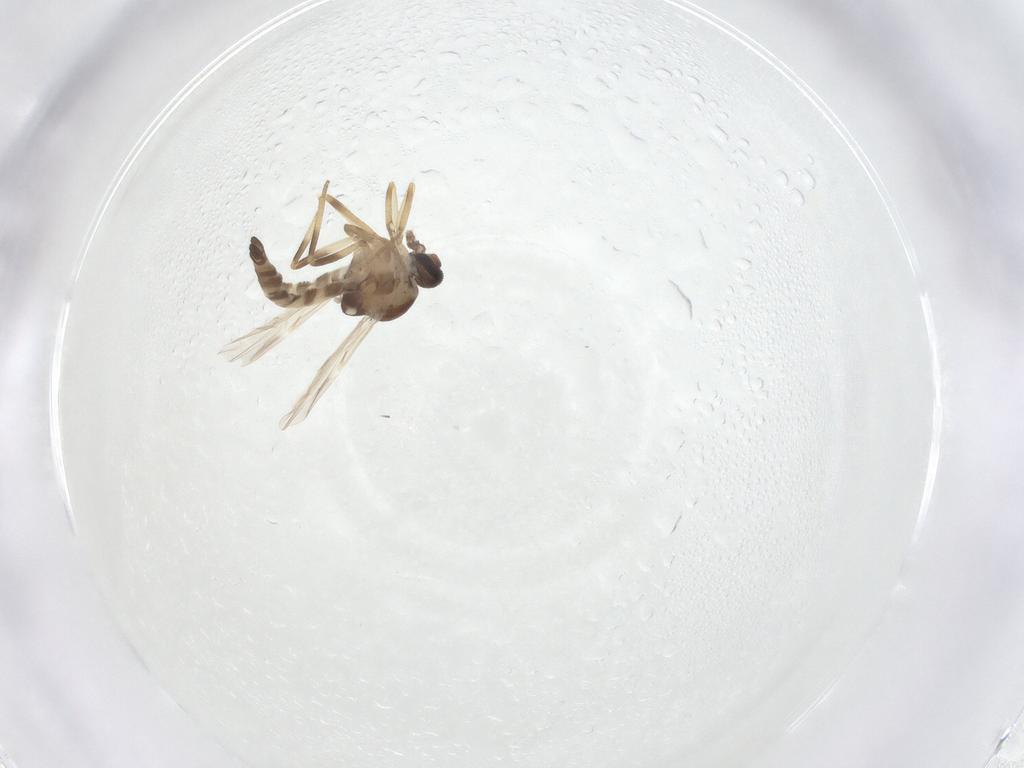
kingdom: Animalia
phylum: Arthropoda
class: Insecta
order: Diptera
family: Ceratopogonidae
